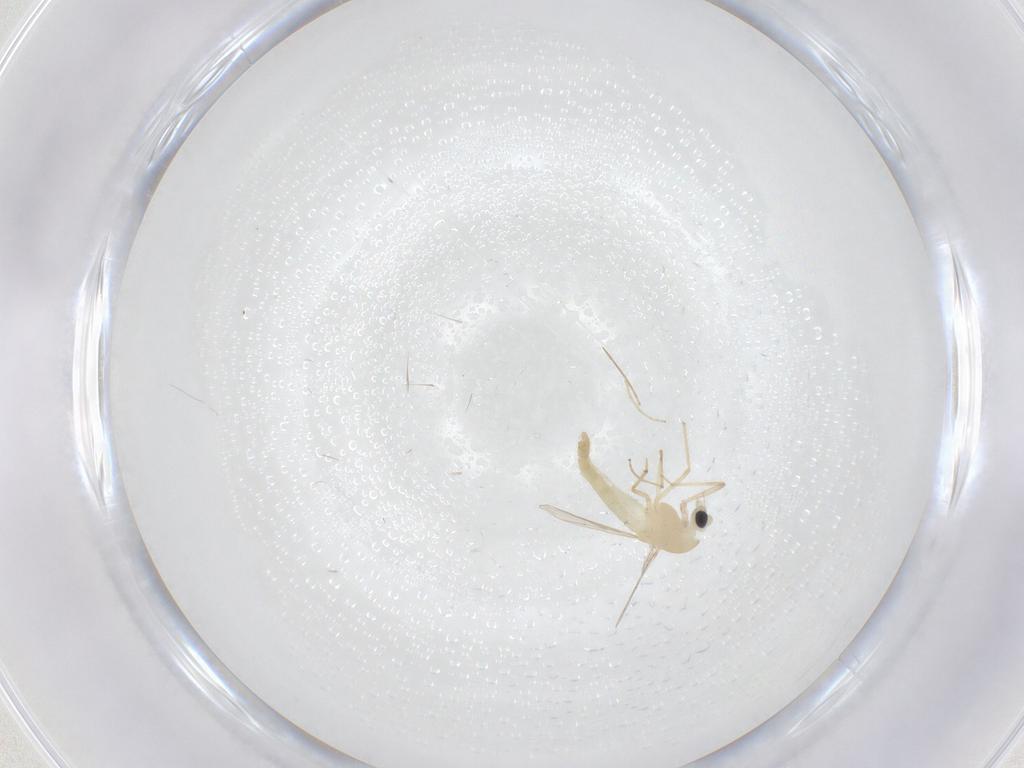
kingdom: Animalia
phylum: Arthropoda
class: Insecta
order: Diptera
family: Chironomidae
